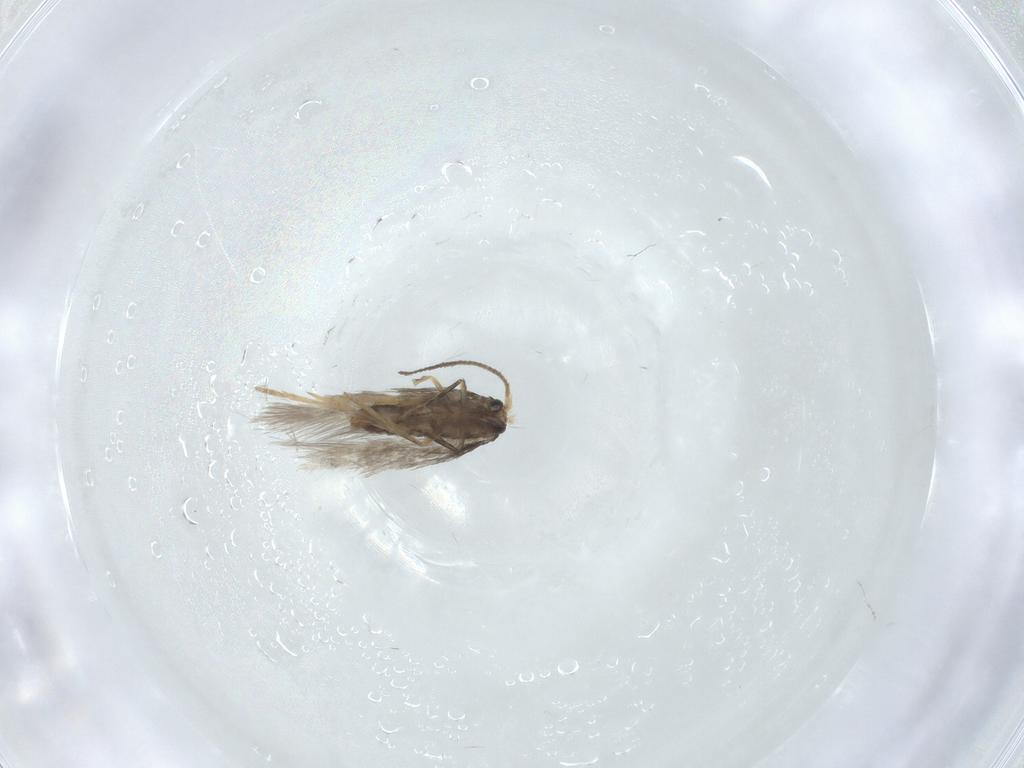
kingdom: Animalia
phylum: Arthropoda
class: Insecta
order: Lepidoptera
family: Nepticulidae
